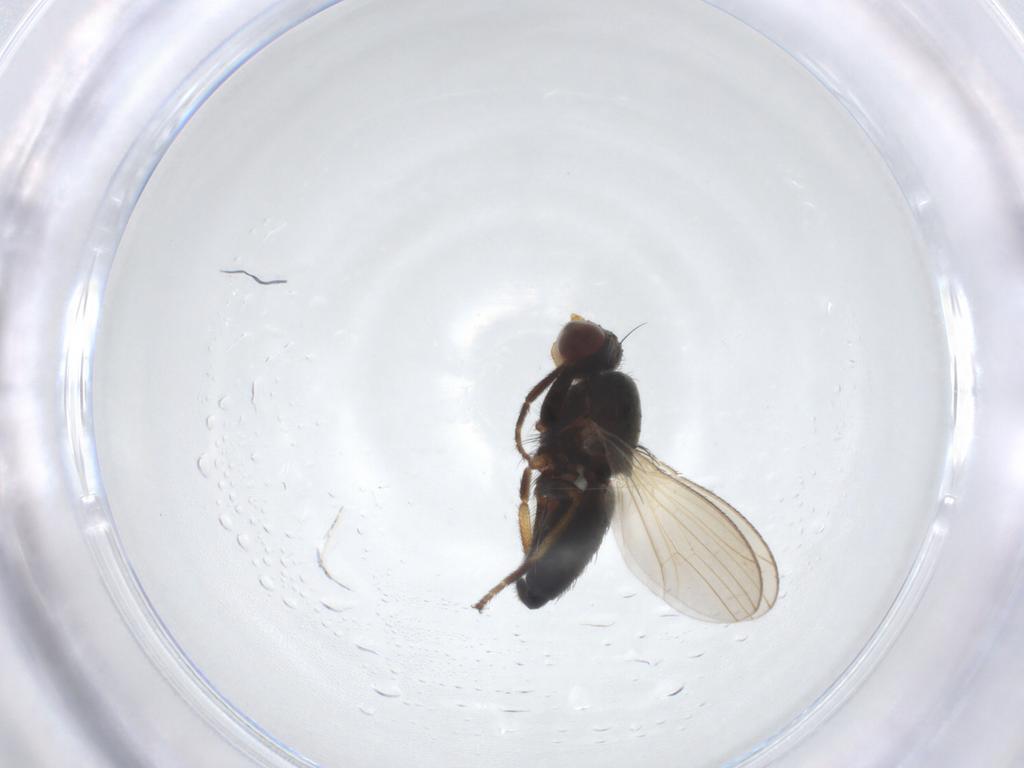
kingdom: Animalia
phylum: Arthropoda
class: Insecta
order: Diptera
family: Heleomyzidae
